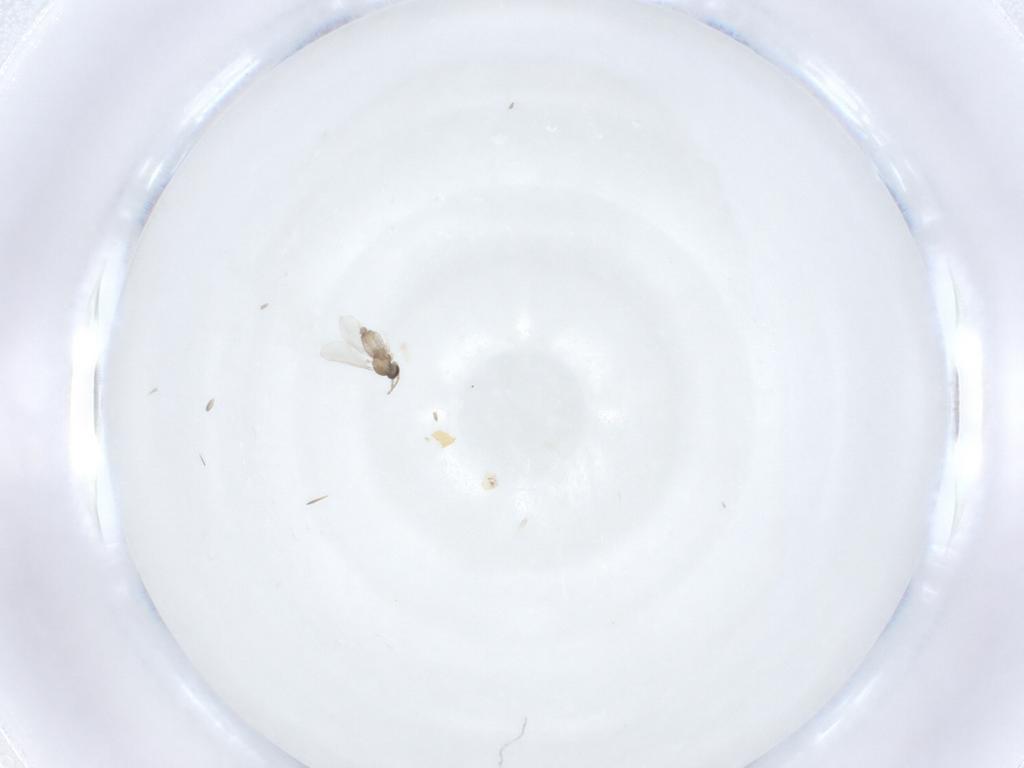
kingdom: Animalia
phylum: Arthropoda
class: Insecta
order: Diptera
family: Cecidomyiidae
